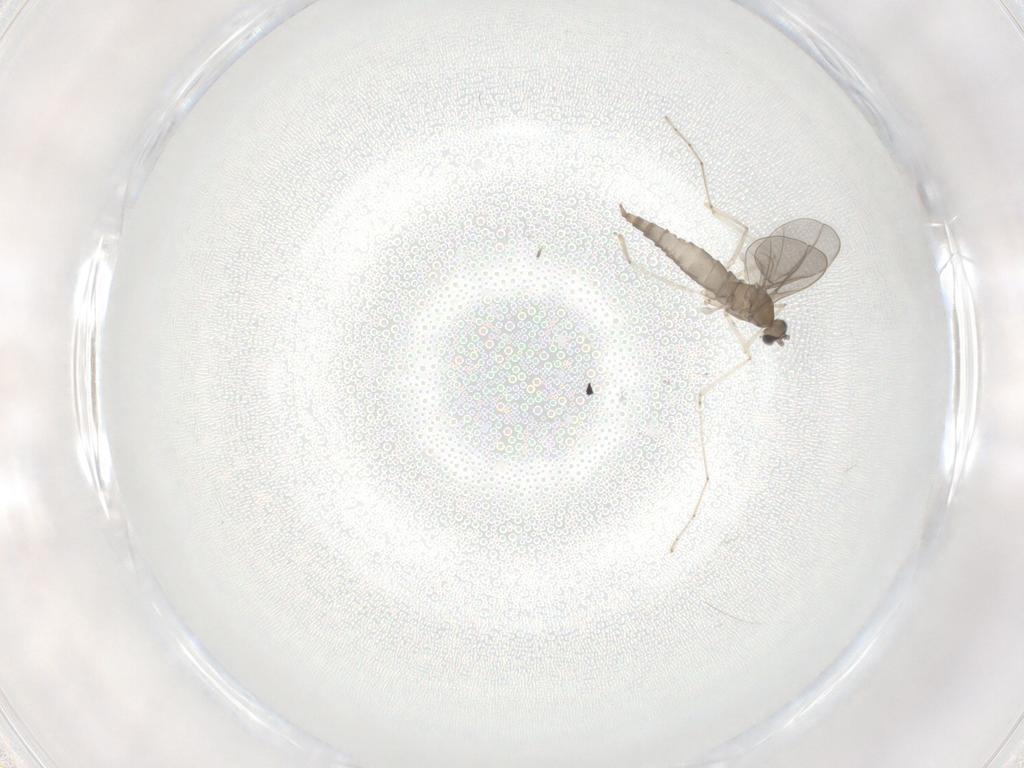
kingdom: Animalia
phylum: Arthropoda
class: Insecta
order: Diptera
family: Cecidomyiidae
